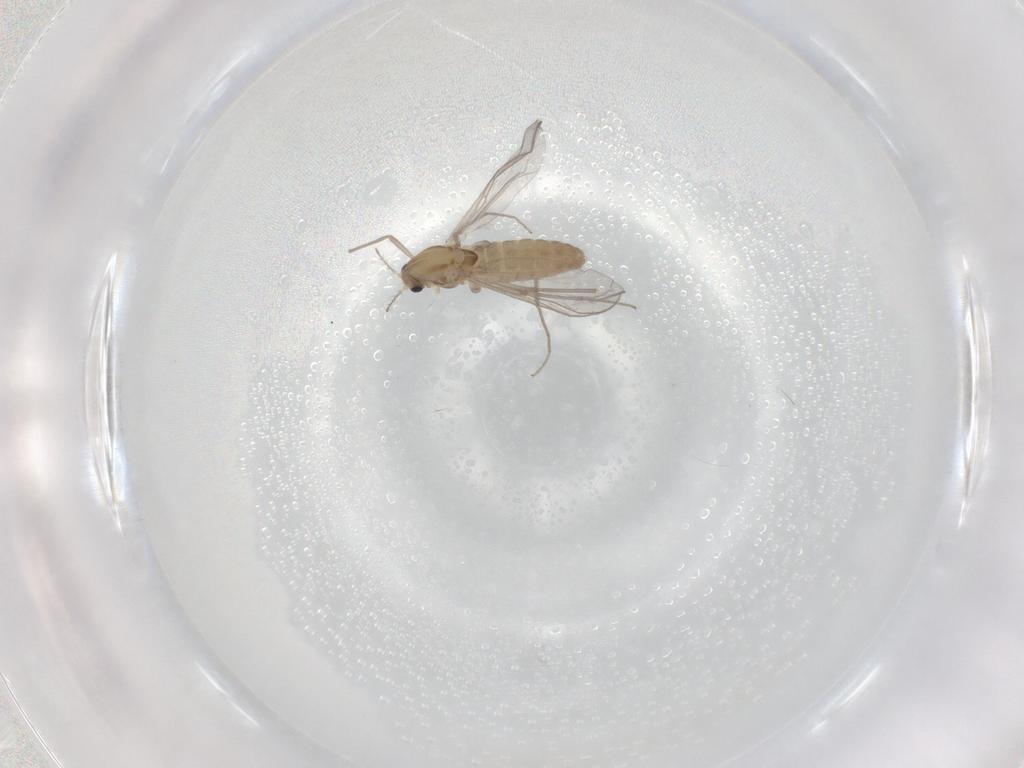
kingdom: Animalia
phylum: Arthropoda
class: Insecta
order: Diptera
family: Chironomidae
